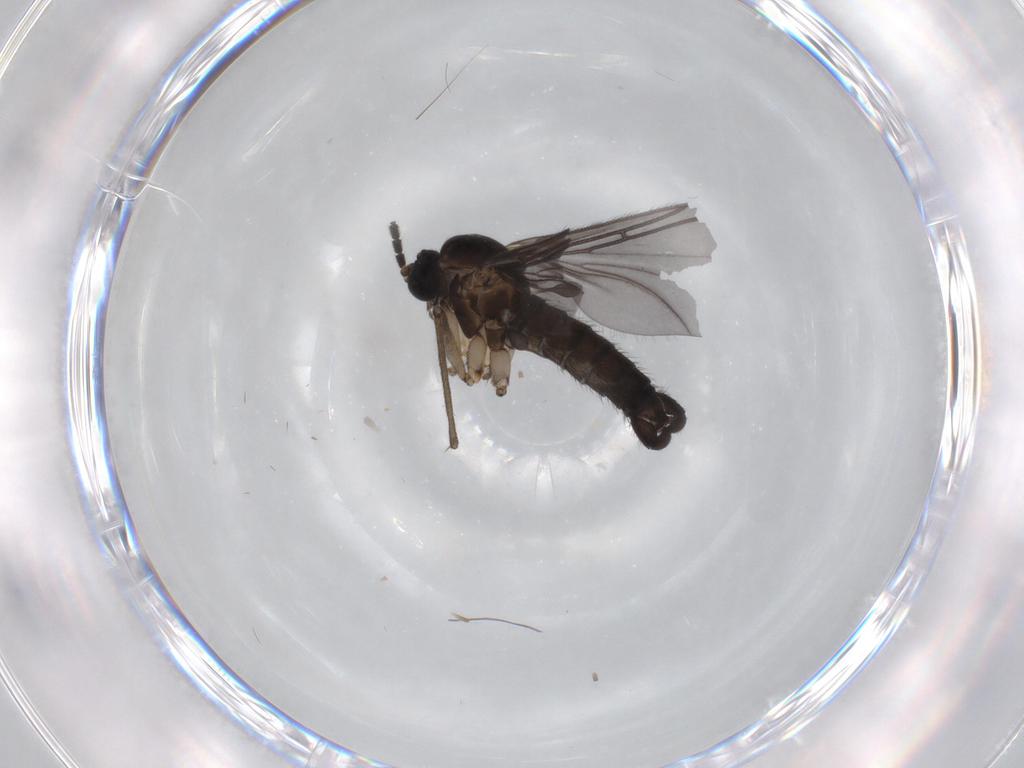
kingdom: Animalia
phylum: Arthropoda
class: Insecta
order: Diptera
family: Sciaridae
